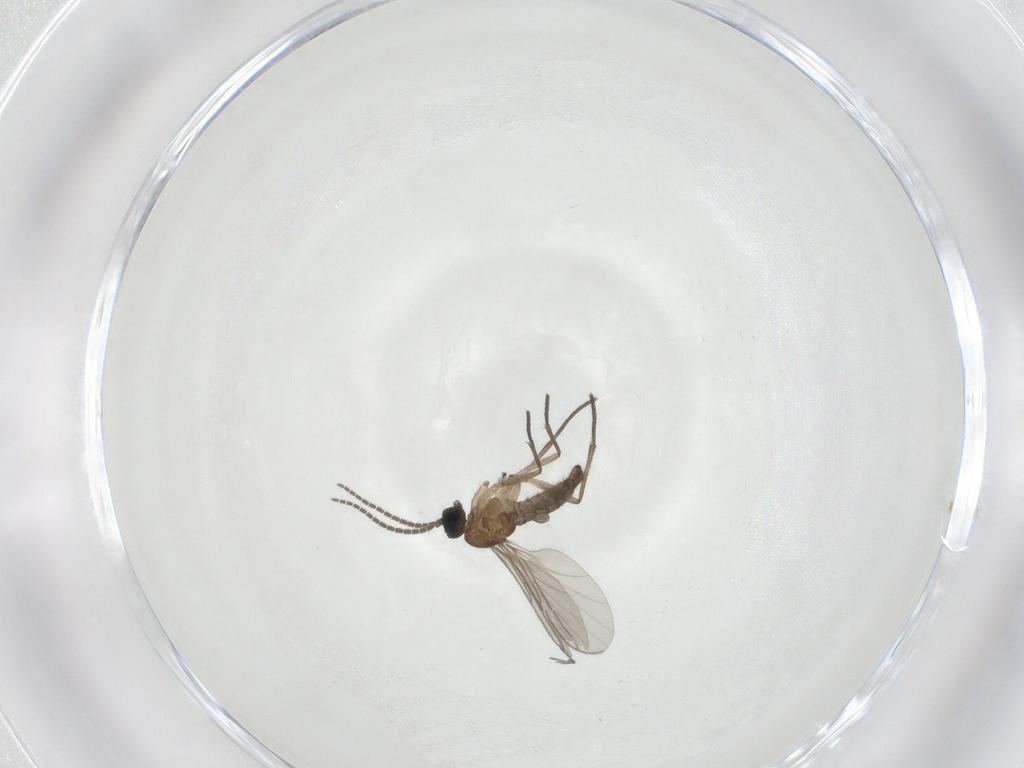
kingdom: Animalia
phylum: Arthropoda
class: Insecta
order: Diptera
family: Sciaridae
